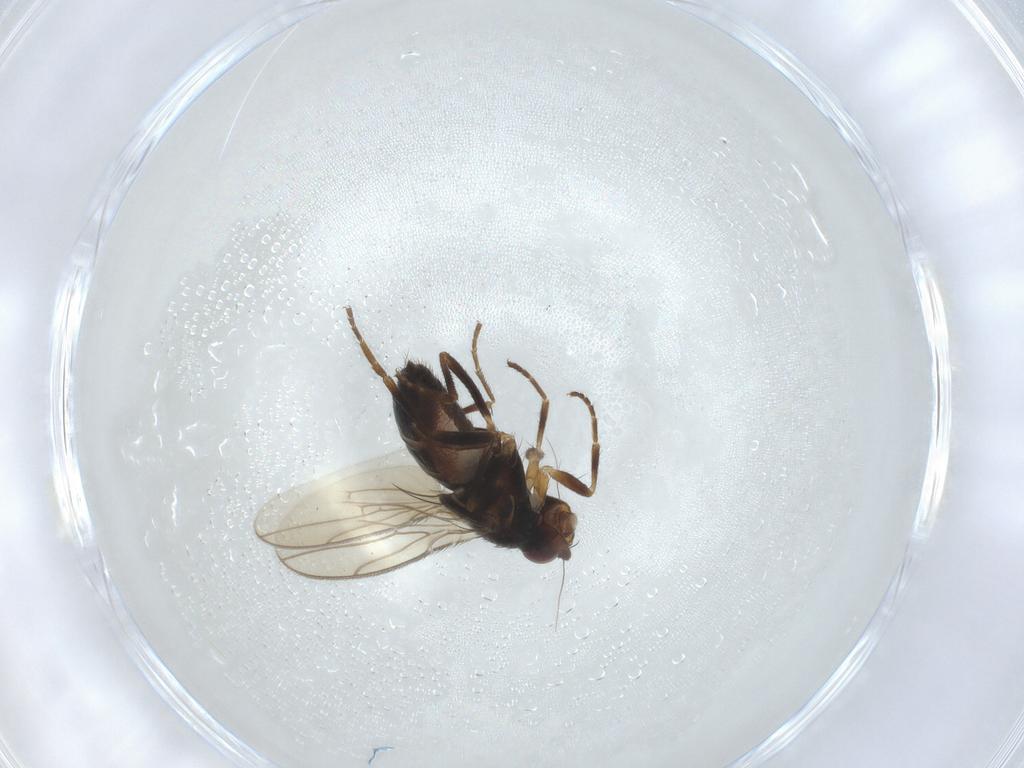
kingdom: Animalia
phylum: Arthropoda
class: Insecta
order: Diptera
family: Sphaeroceridae
